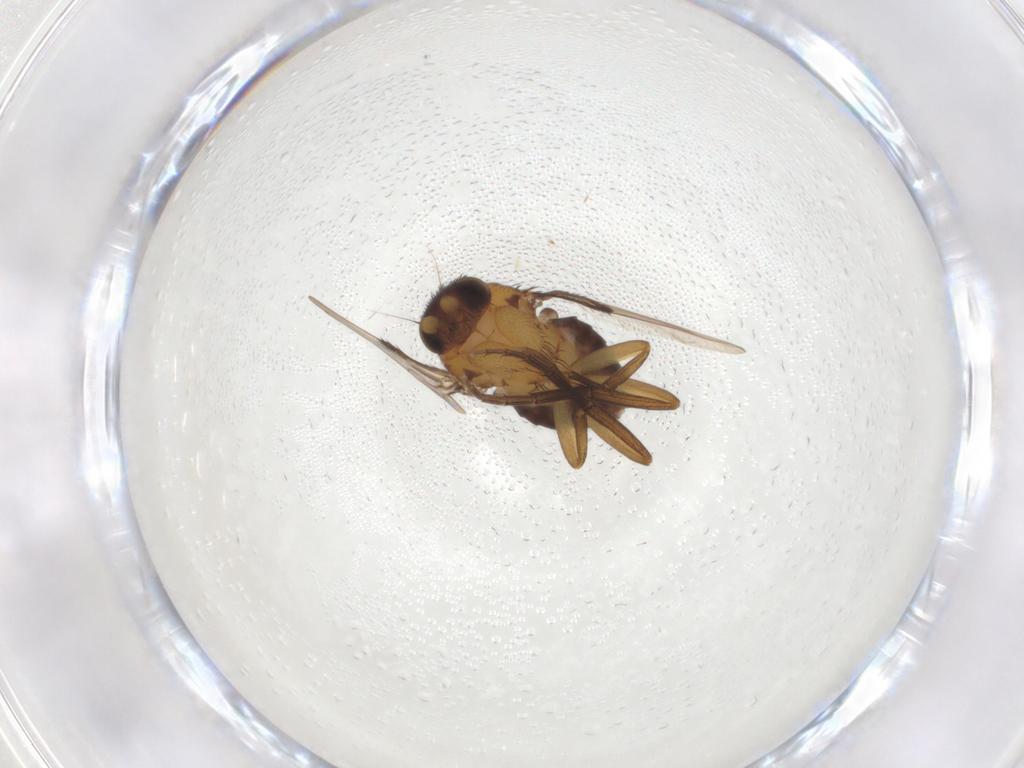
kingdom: Animalia
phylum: Arthropoda
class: Insecta
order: Diptera
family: Phoridae
